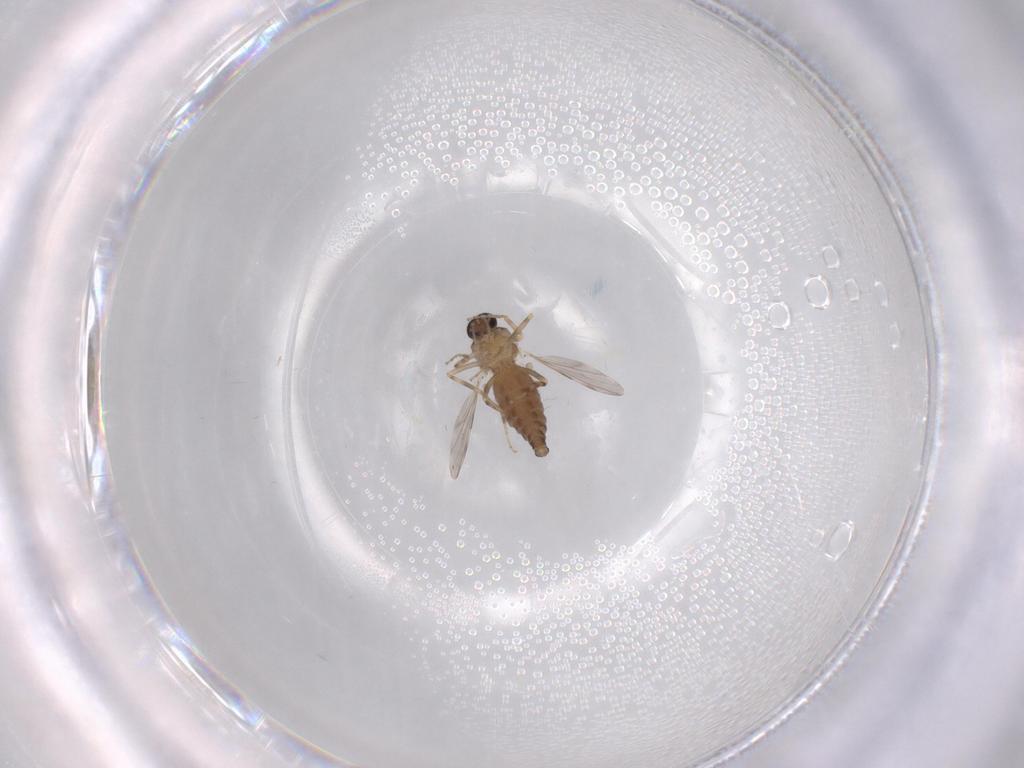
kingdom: Animalia
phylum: Arthropoda
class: Insecta
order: Diptera
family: Ceratopogonidae
